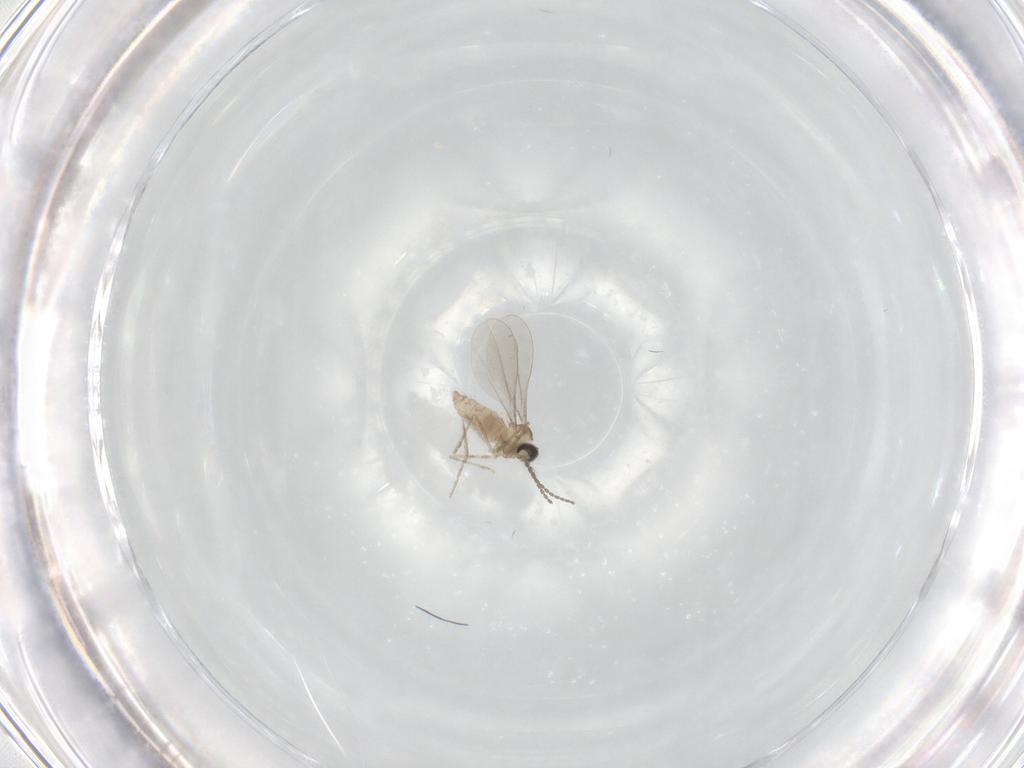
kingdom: Animalia
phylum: Arthropoda
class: Insecta
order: Diptera
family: Cecidomyiidae
